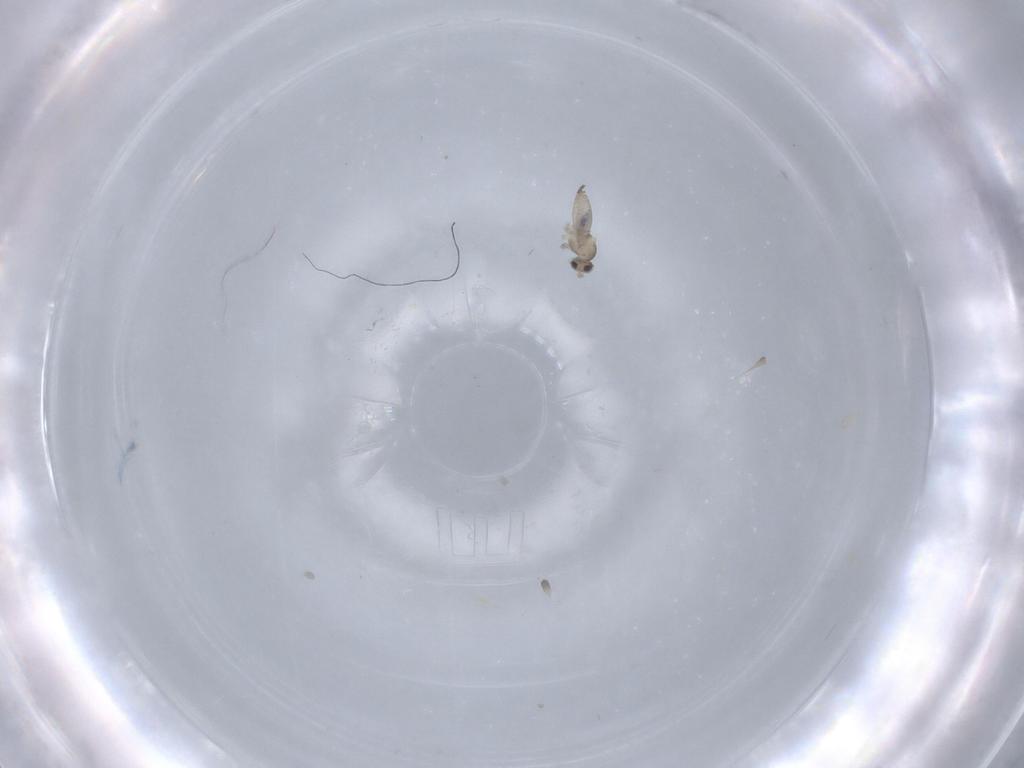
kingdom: Animalia
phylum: Arthropoda
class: Insecta
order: Diptera
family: Cecidomyiidae
